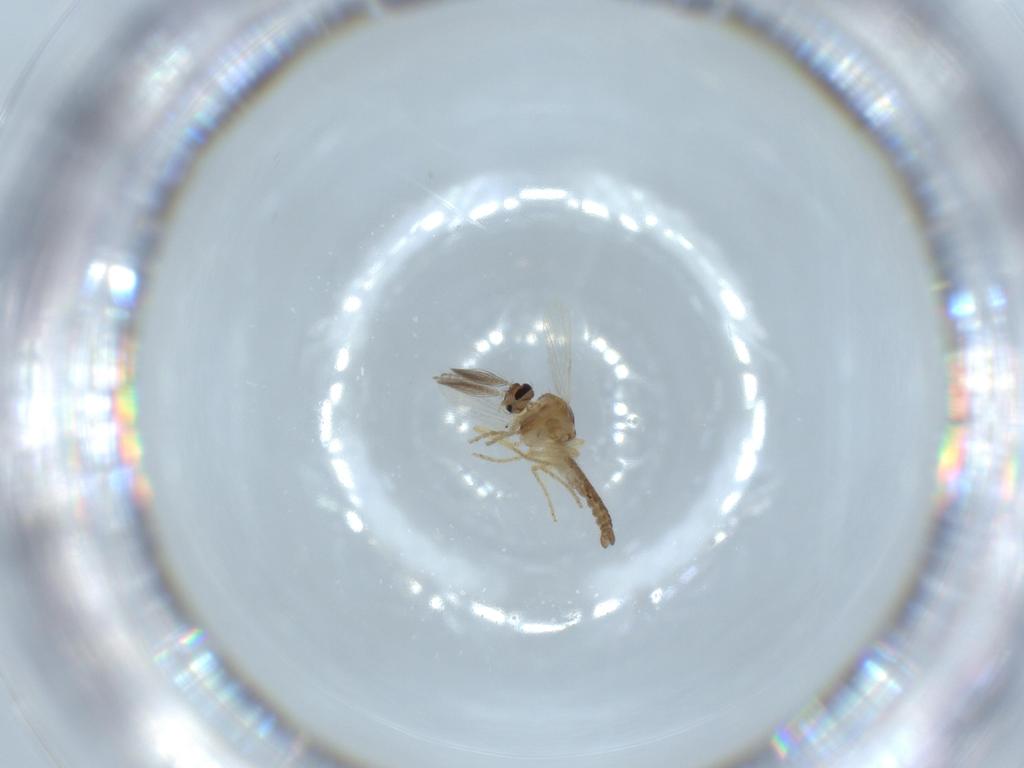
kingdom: Animalia
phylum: Arthropoda
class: Insecta
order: Diptera
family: Ceratopogonidae
